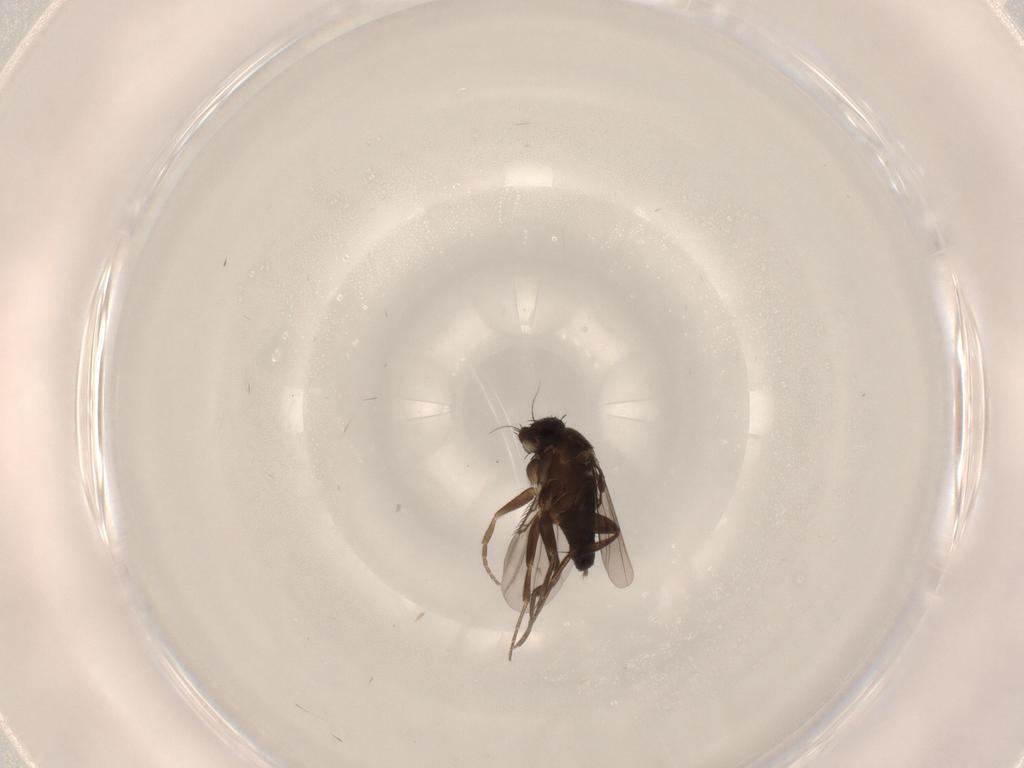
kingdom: Animalia
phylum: Arthropoda
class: Insecta
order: Diptera
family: Phoridae
